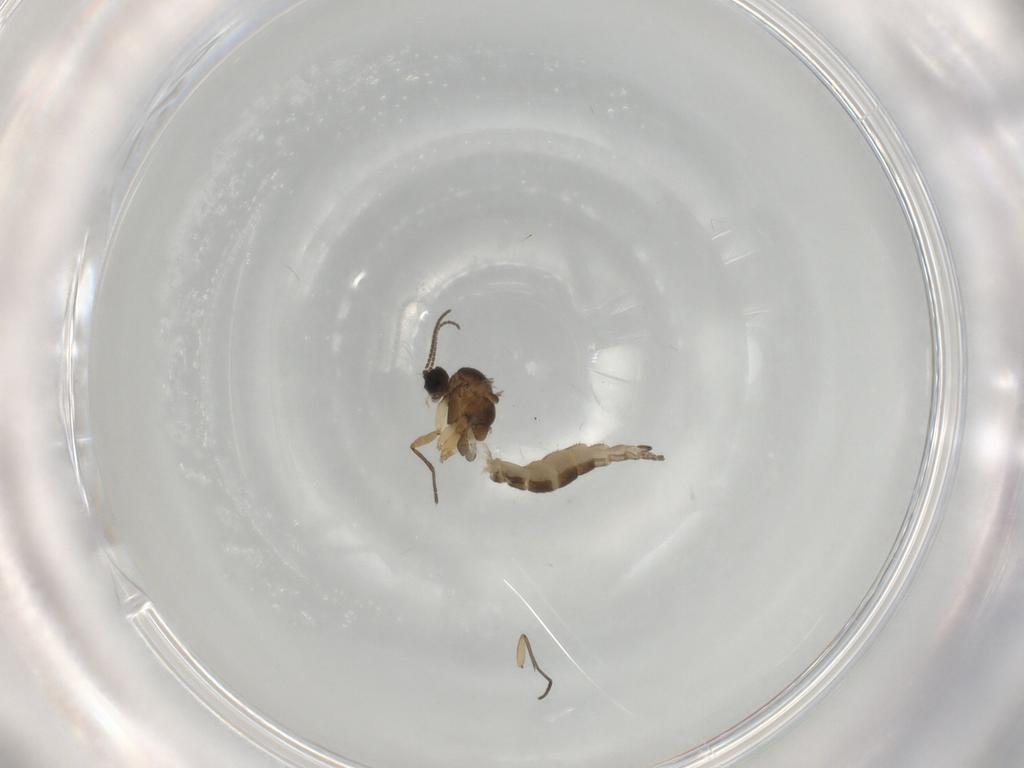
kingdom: Animalia
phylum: Arthropoda
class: Insecta
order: Diptera
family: Sciaridae
